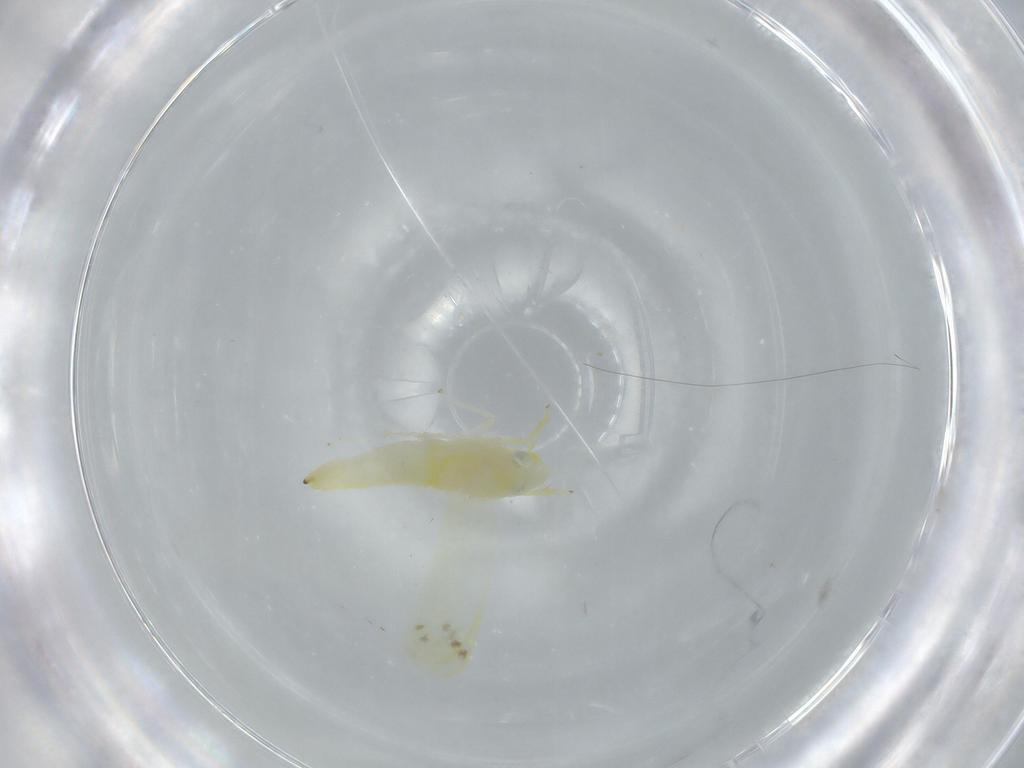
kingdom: Animalia
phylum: Arthropoda
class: Insecta
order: Hemiptera
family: Cicadellidae
